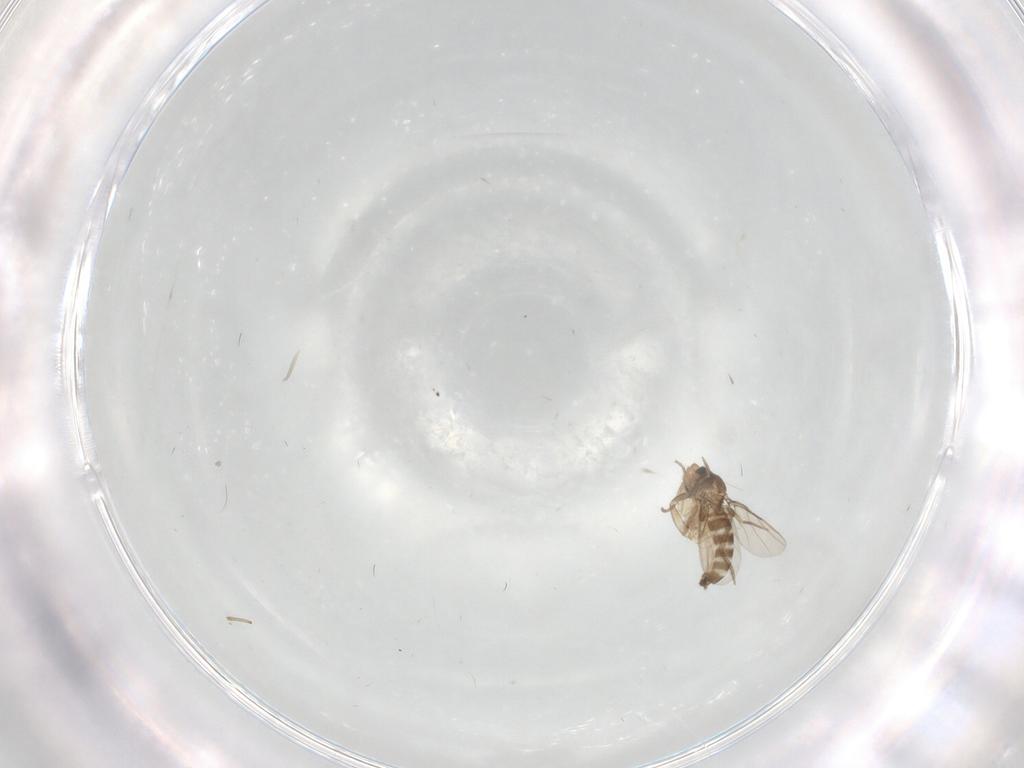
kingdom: Animalia
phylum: Arthropoda
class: Insecta
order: Diptera
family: Phoridae
